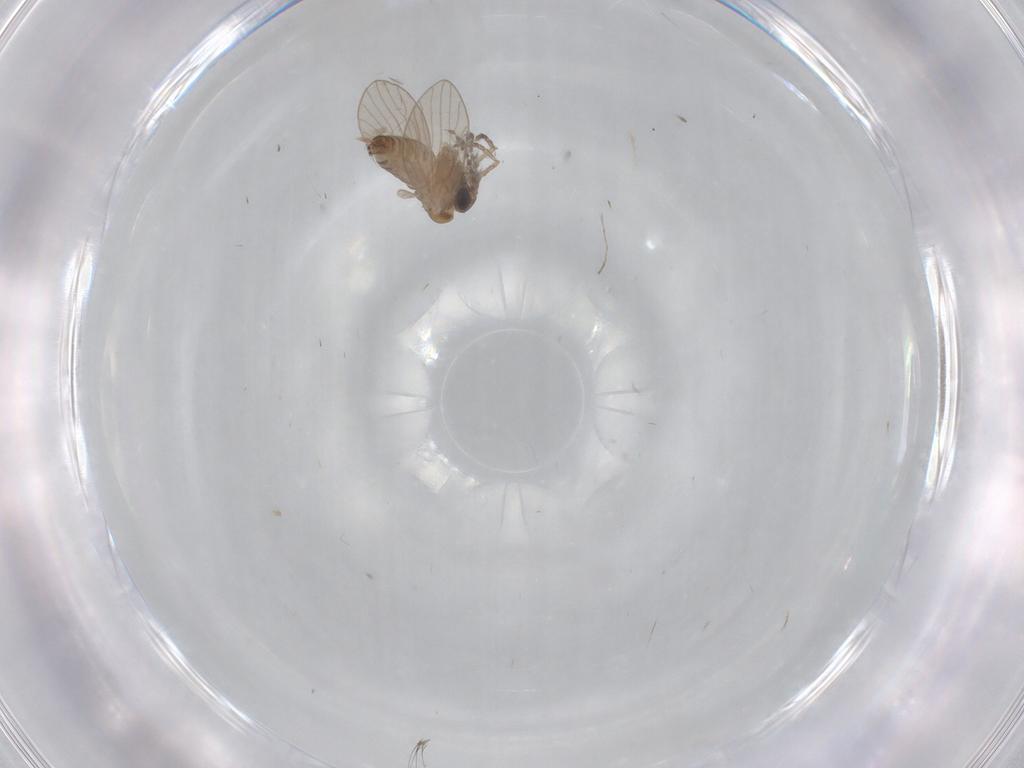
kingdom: Animalia
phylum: Arthropoda
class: Insecta
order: Diptera
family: Psychodidae
